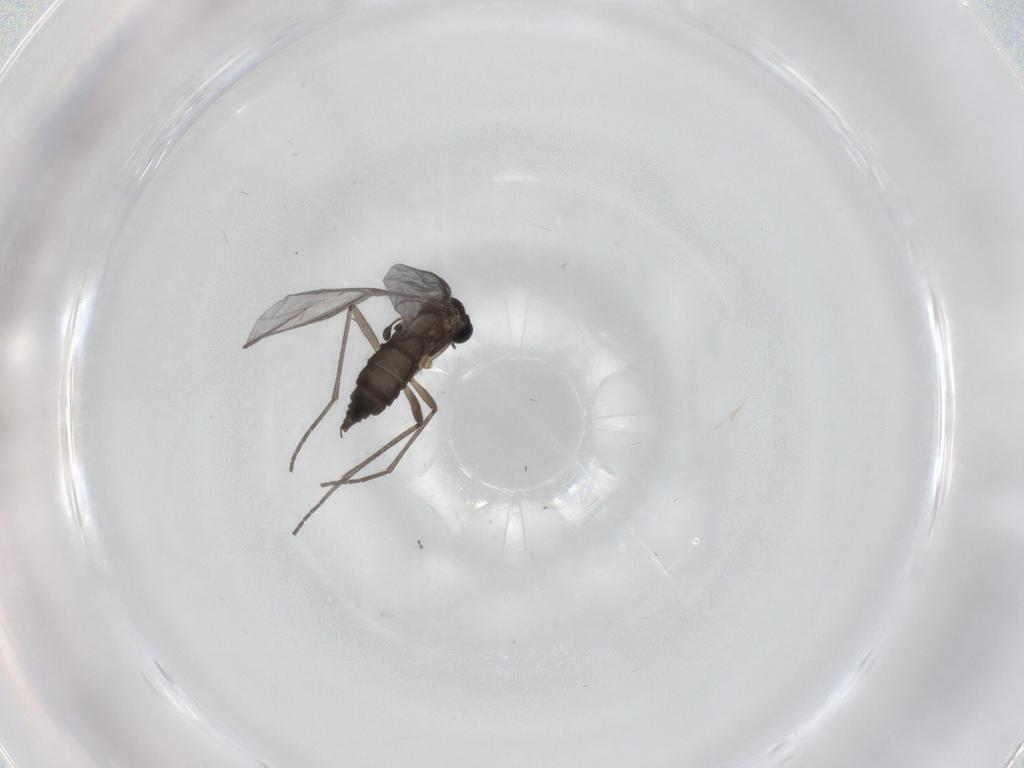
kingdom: Animalia
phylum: Arthropoda
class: Insecta
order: Diptera
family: Sciaridae
